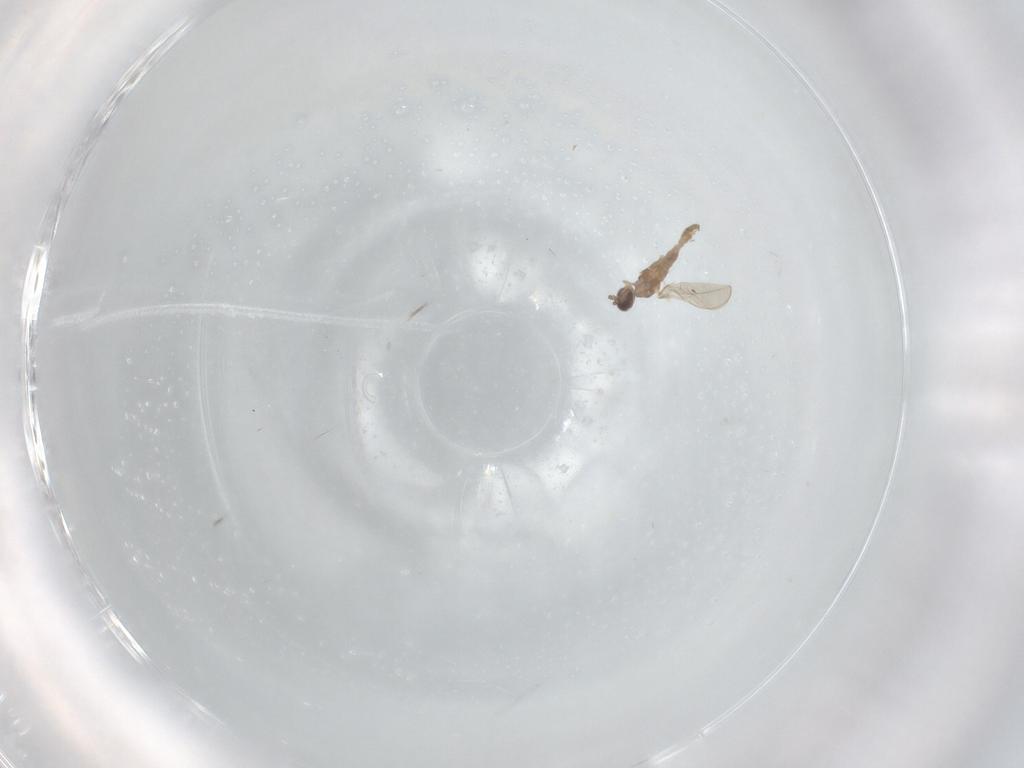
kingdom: Animalia
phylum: Arthropoda
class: Insecta
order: Diptera
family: Cecidomyiidae
